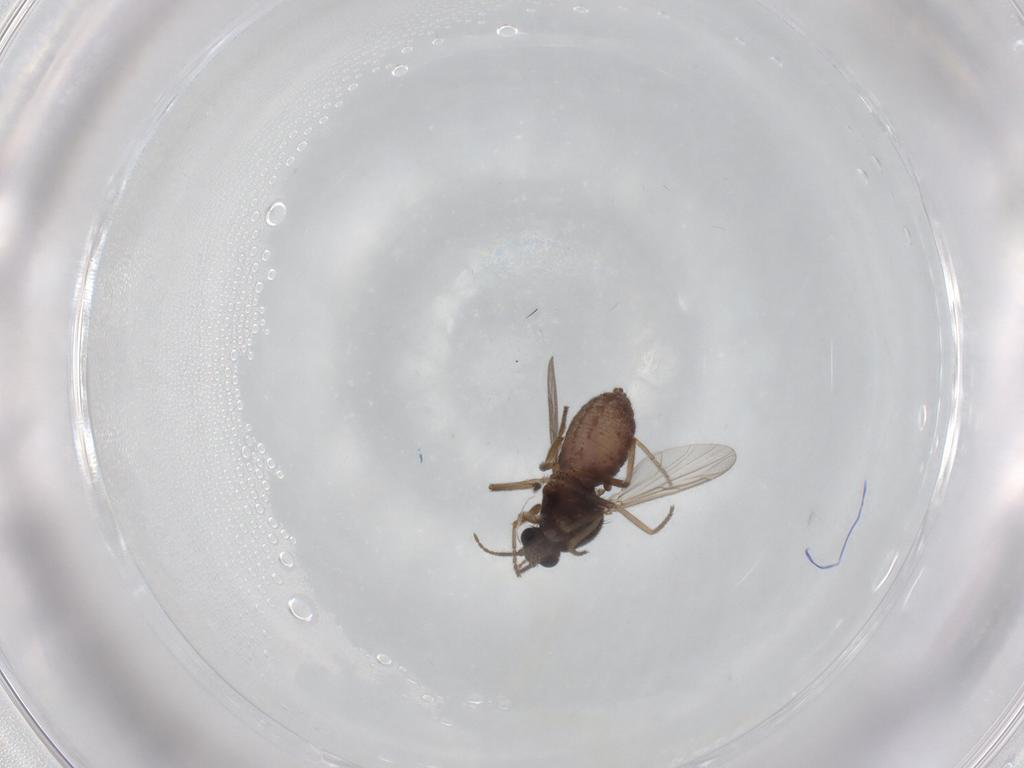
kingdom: Animalia
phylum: Arthropoda
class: Insecta
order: Diptera
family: Ceratopogonidae
